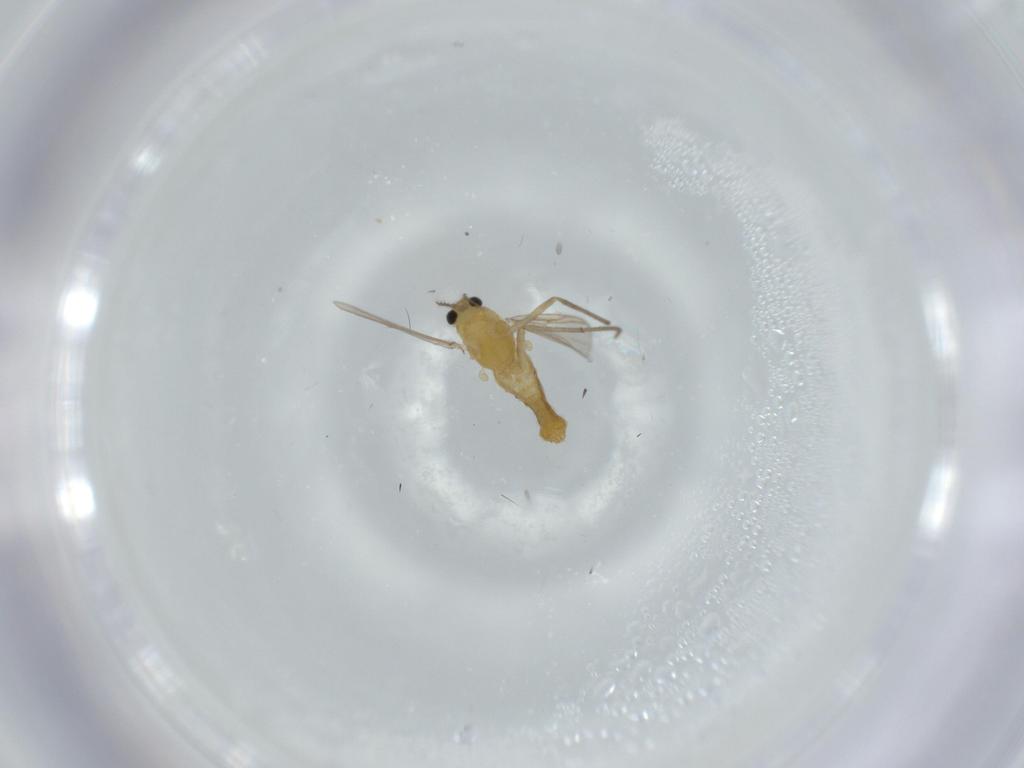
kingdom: Animalia
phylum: Arthropoda
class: Insecta
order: Diptera
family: Chironomidae
